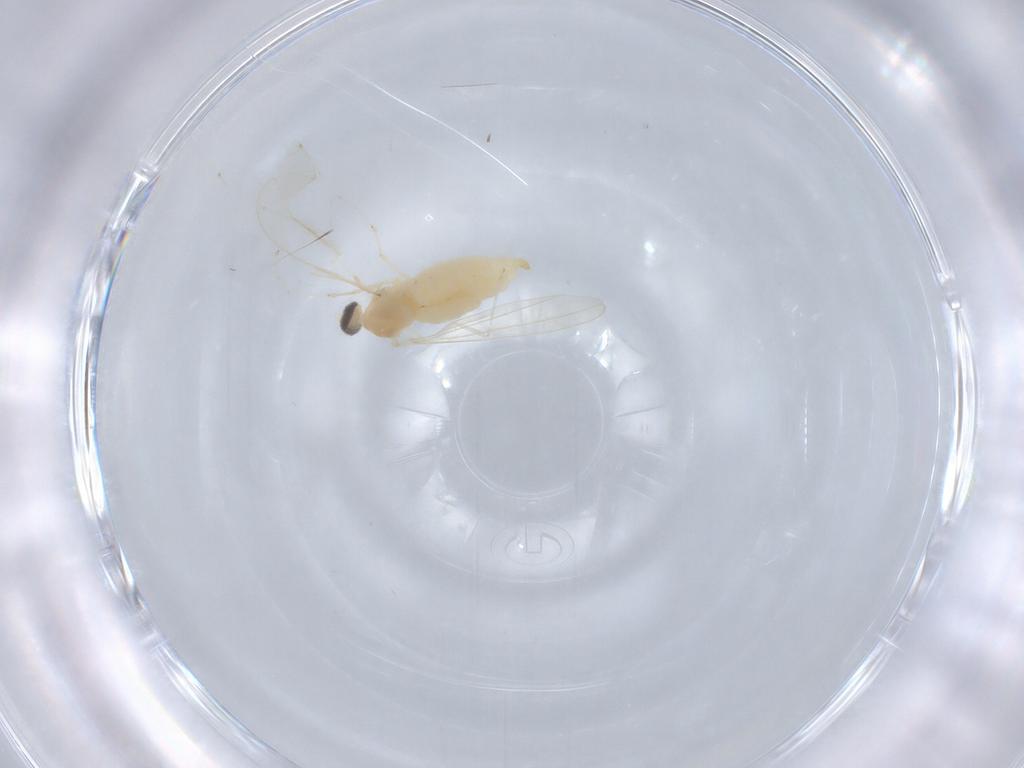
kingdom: Animalia
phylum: Arthropoda
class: Insecta
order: Diptera
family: Cecidomyiidae
